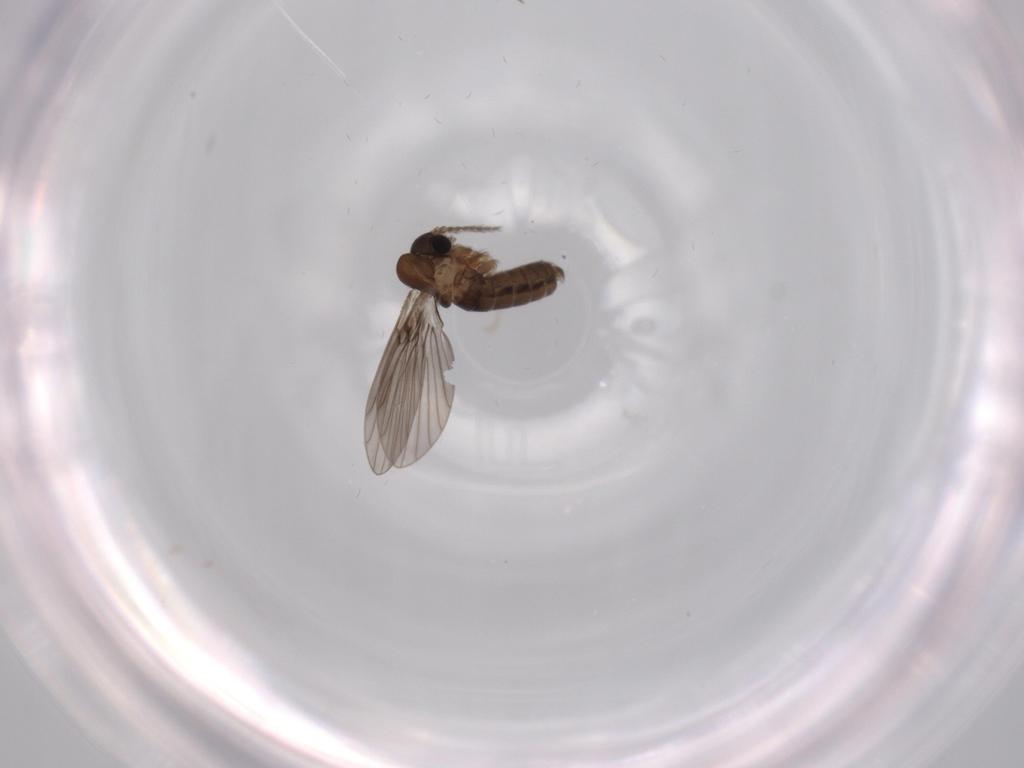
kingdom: Animalia
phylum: Arthropoda
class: Insecta
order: Diptera
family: Psychodidae
